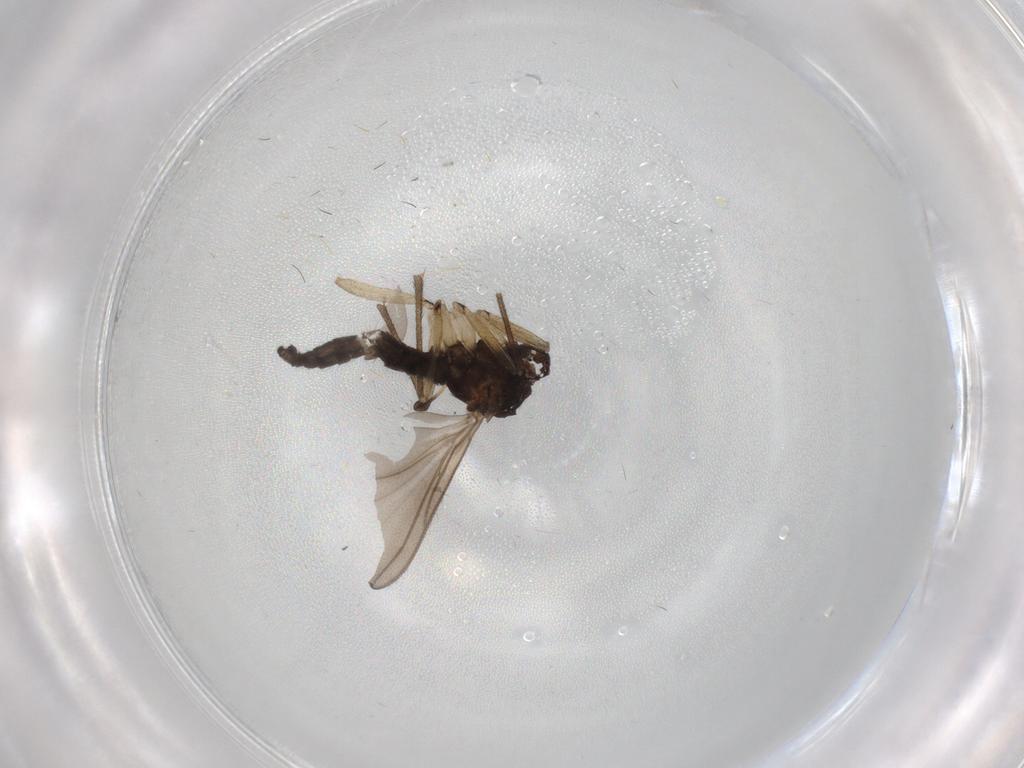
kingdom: Animalia
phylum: Arthropoda
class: Insecta
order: Diptera
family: Sciaridae
